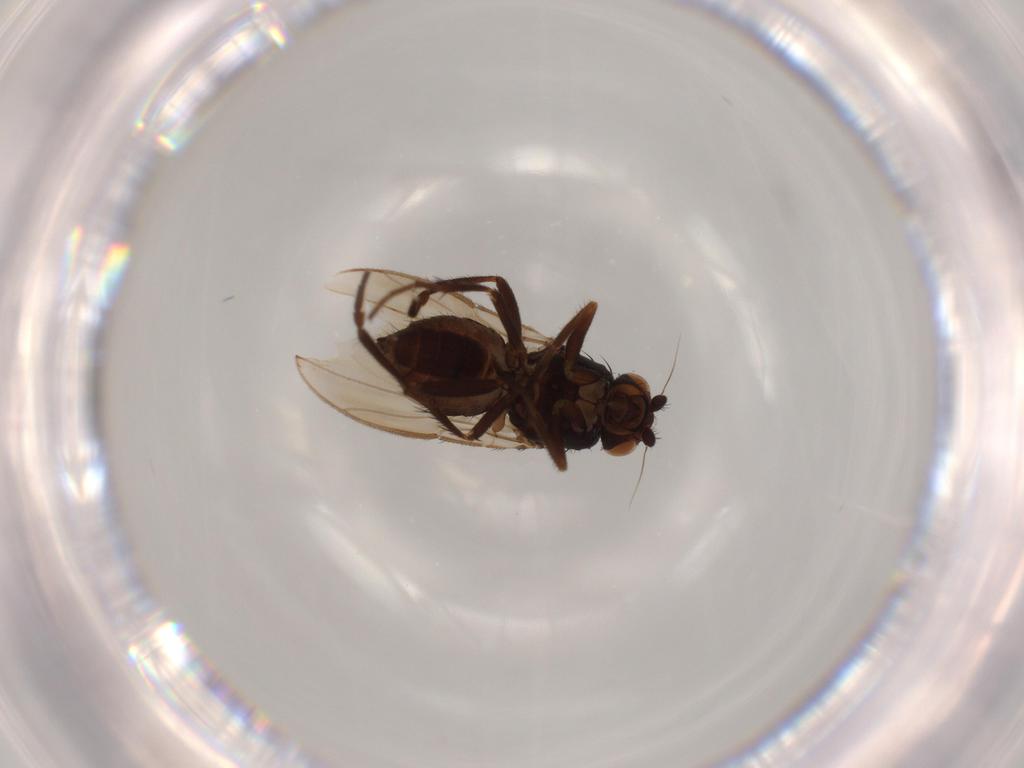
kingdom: Animalia
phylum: Arthropoda
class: Insecta
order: Diptera
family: Sphaeroceridae
